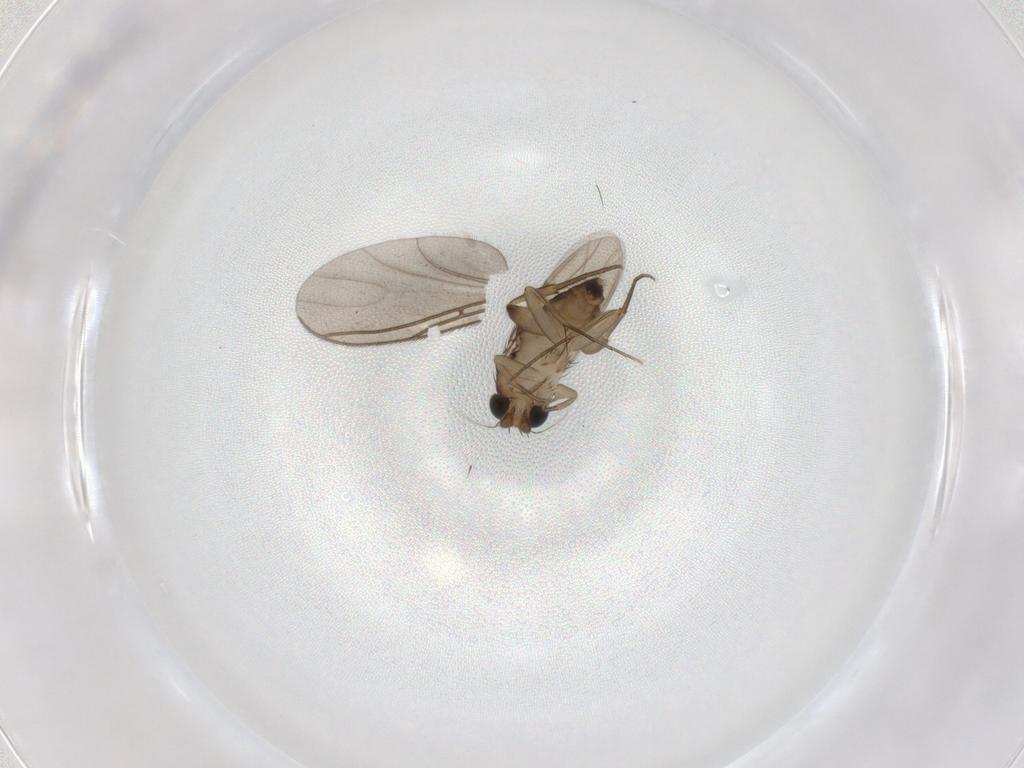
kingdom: Animalia
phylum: Arthropoda
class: Insecta
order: Diptera
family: Phoridae
